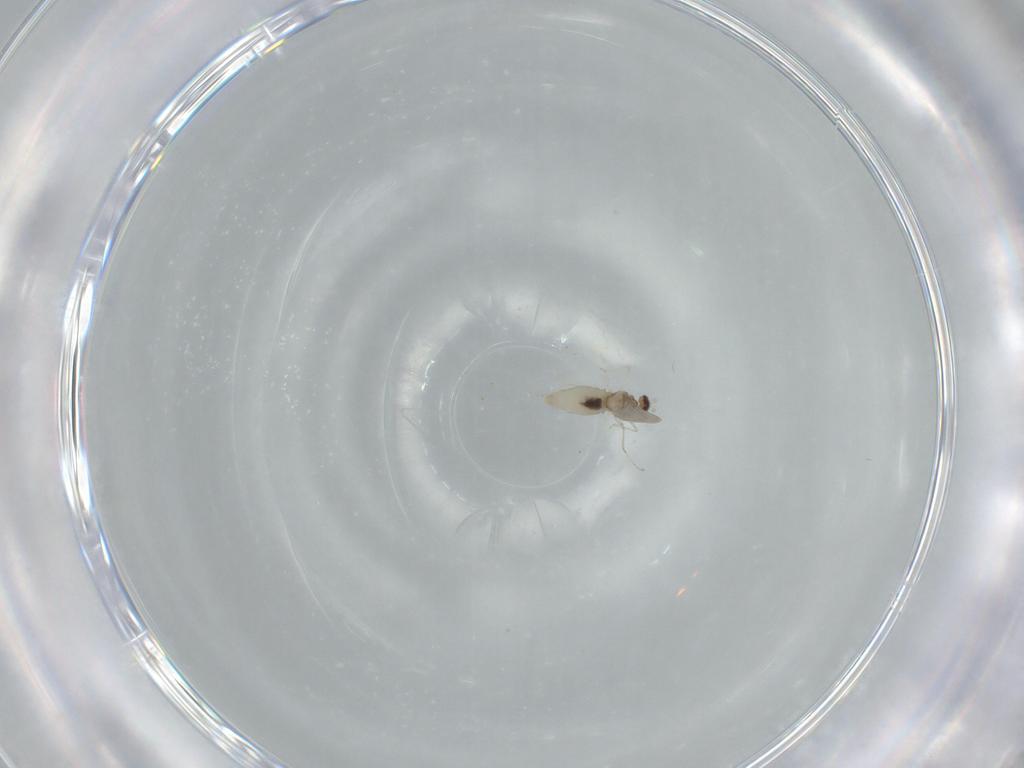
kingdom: Animalia
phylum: Arthropoda
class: Insecta
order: Diptera
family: Cecidomyiidae
